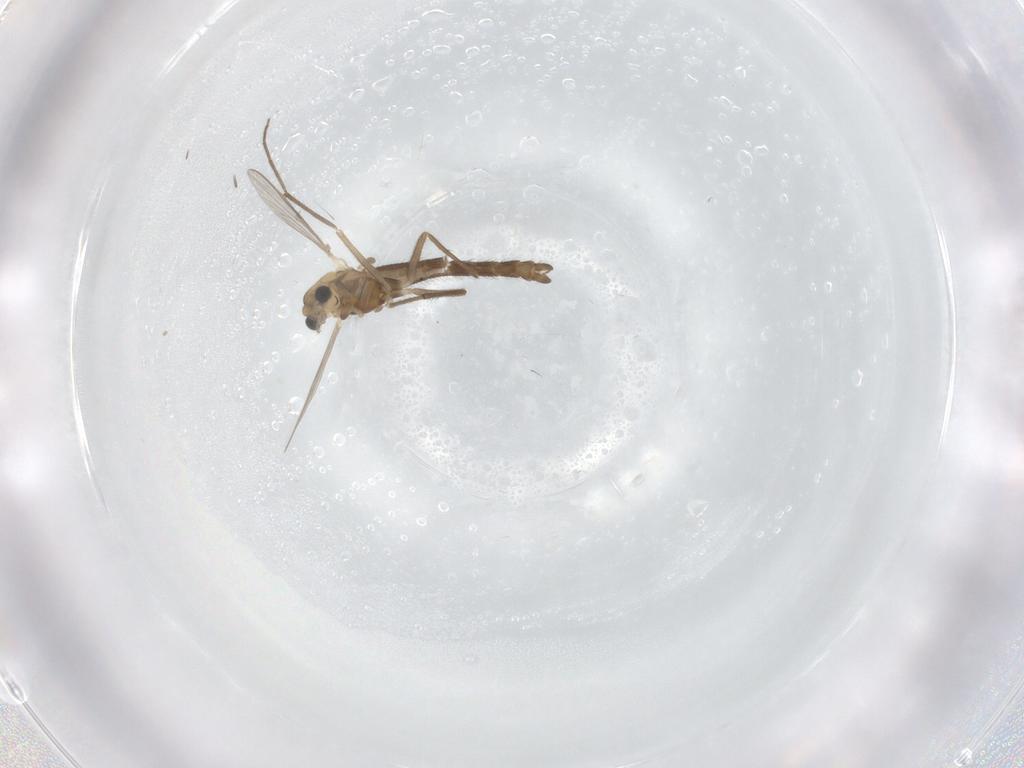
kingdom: Animalia
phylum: Arthropoda
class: Insecta
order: Diptera
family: Chironomidae
